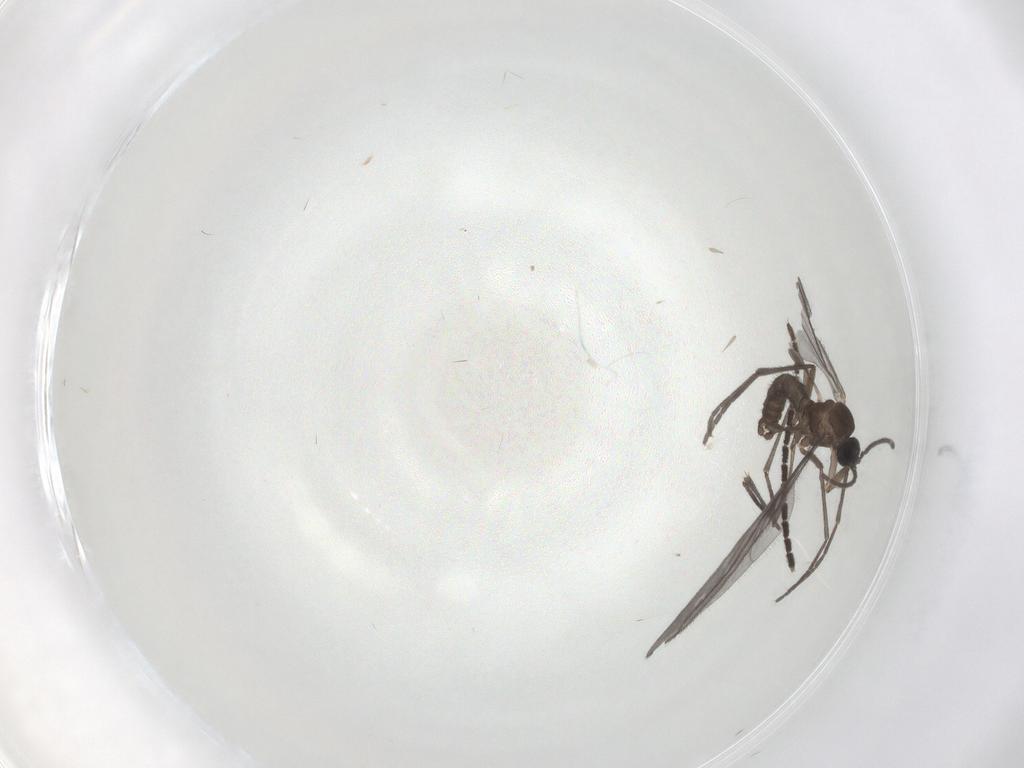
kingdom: Animalia
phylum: Arthropoda
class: Insecta
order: Diptera
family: Sciaridae
